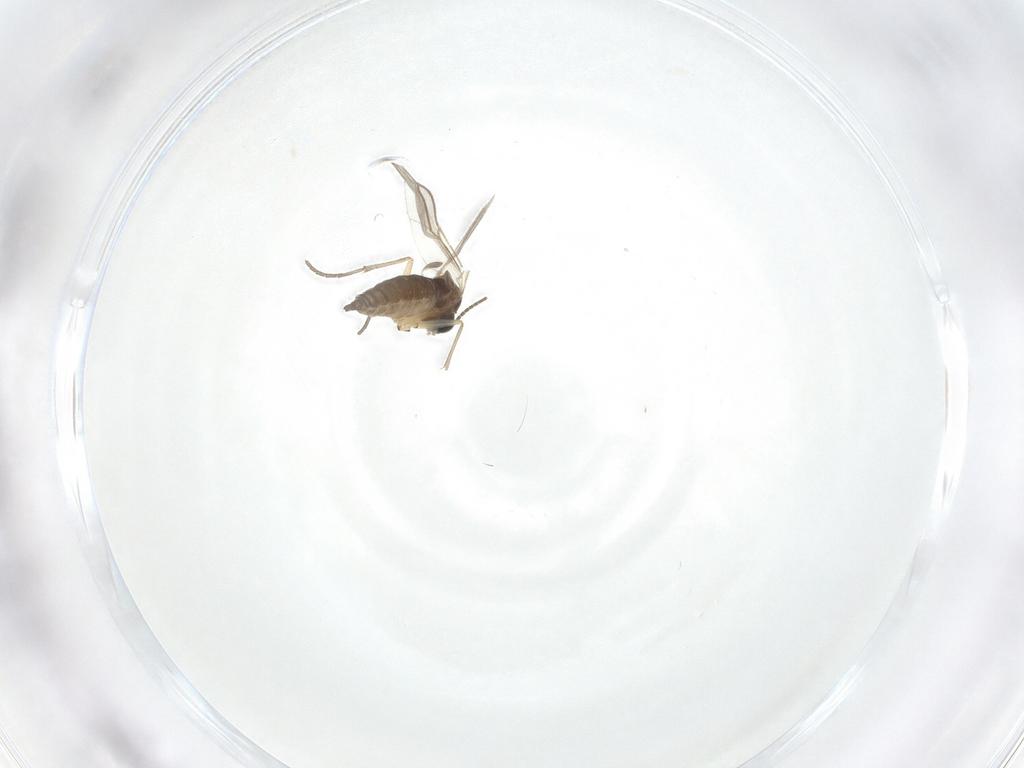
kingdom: Animalia
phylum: Arthropoda
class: Insecta
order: Diptera
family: Sciaridae
